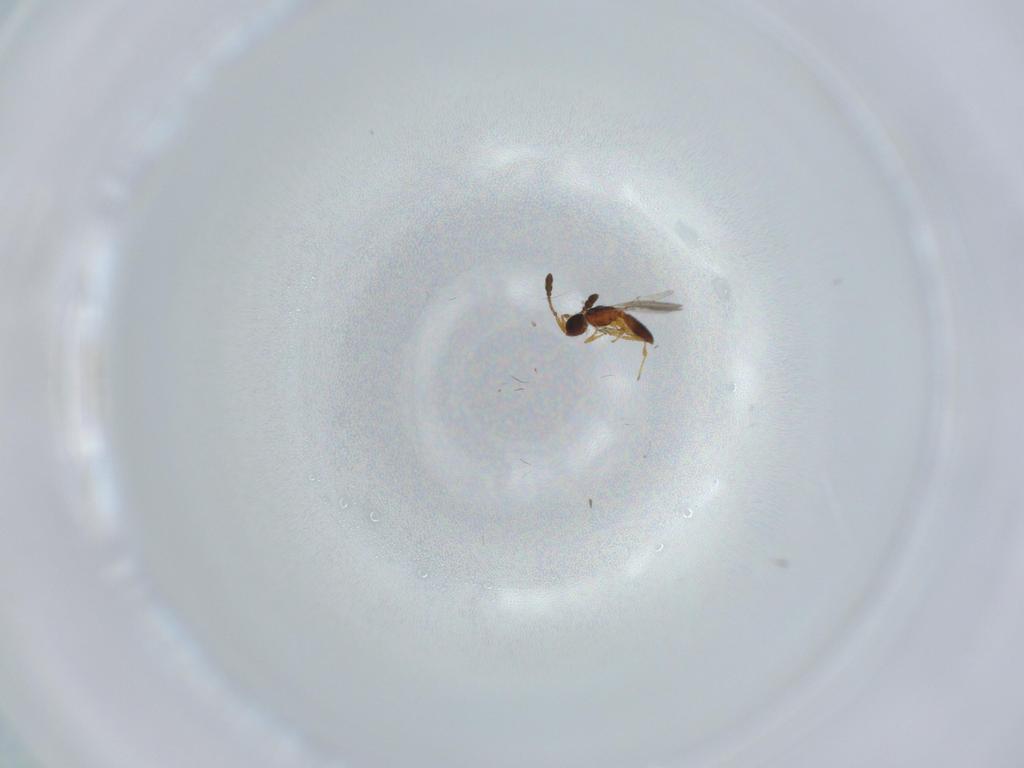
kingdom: Animalia
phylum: Arthropoda
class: Insecta
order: Hymenoptera
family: Diapriidae
